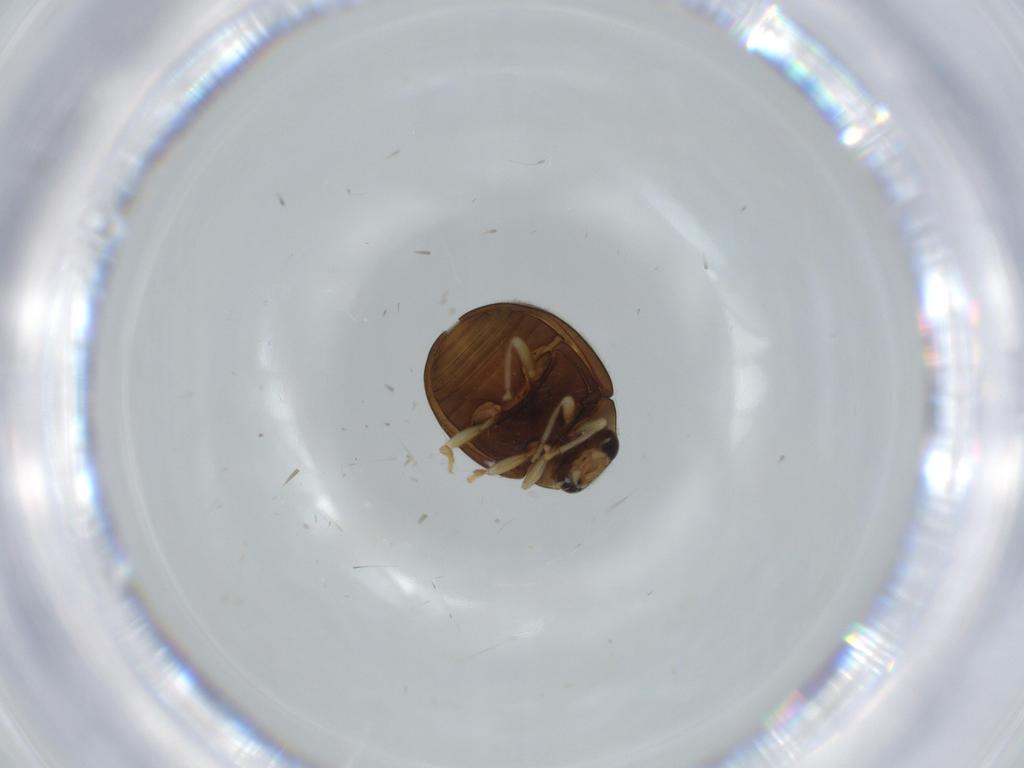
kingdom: Animalia
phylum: Arthropoda
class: Insecta
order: Coleoptera
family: Coccinellidae
